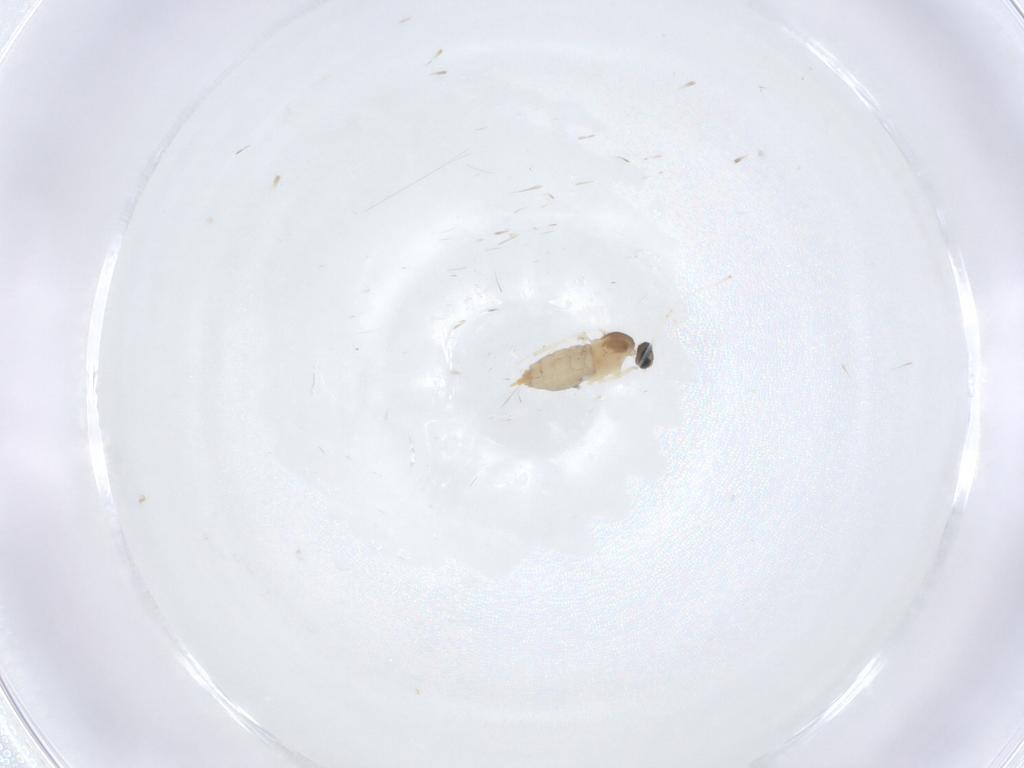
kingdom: Animalia
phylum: Arthropoda
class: Insecta
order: Diptera
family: Cecidomyiidae
